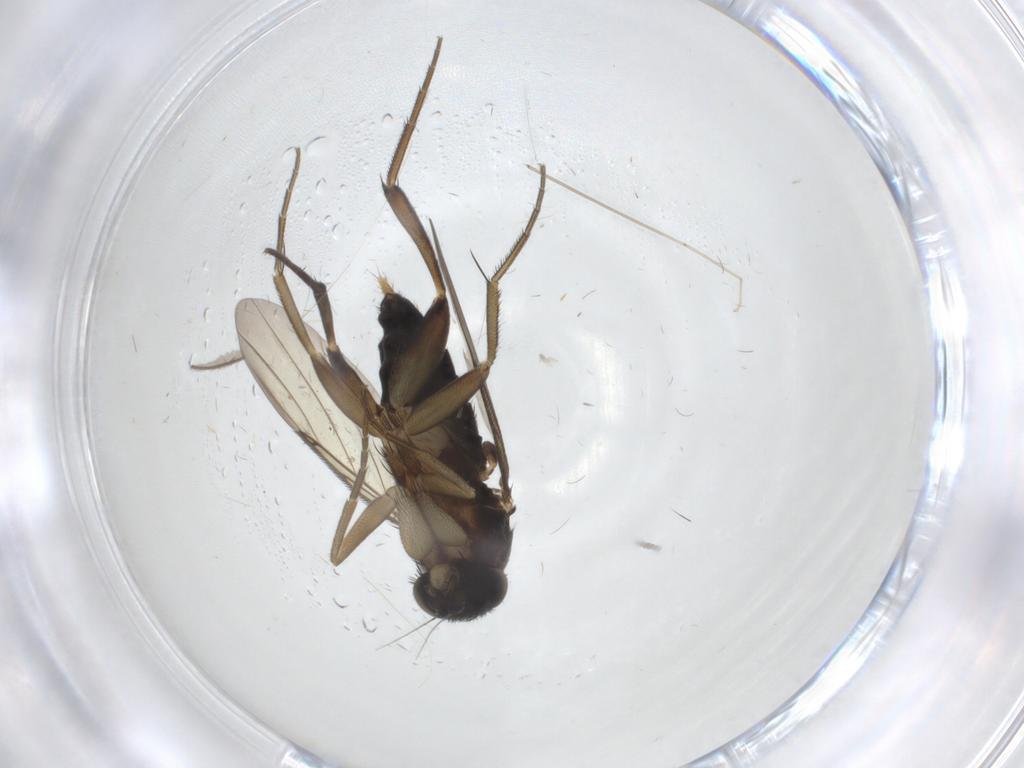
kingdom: Animalia
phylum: Arthropoda
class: Insecta
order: Diptera
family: Phoridae
